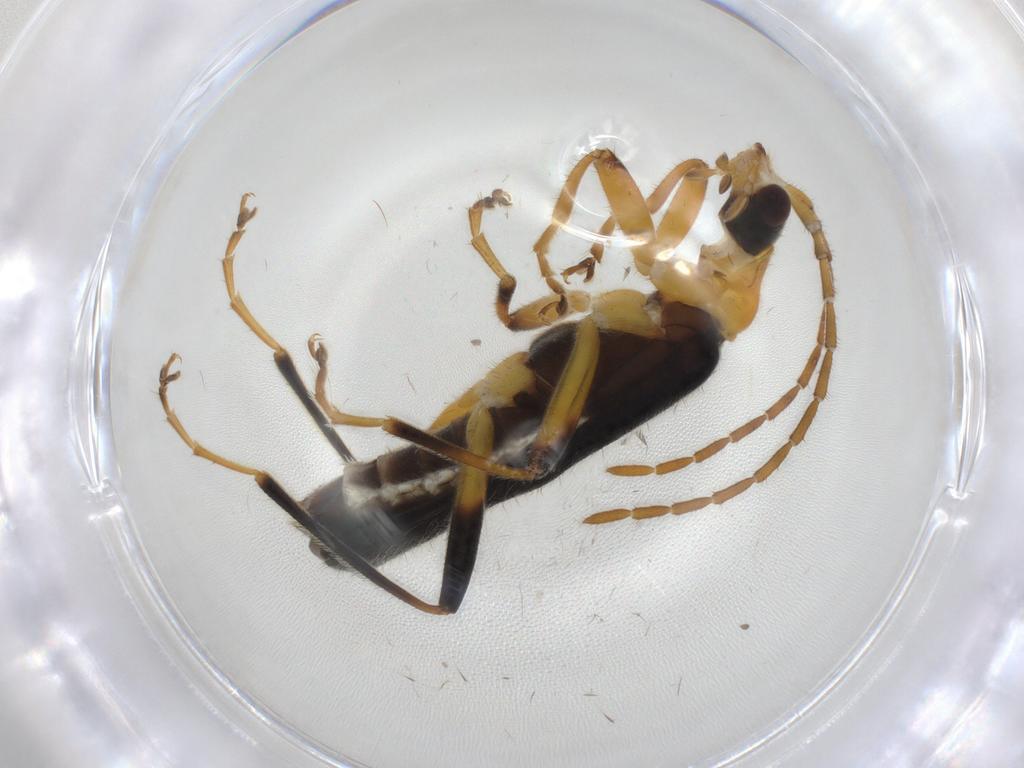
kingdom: Animalia
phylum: Arthropoda
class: Insecta
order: Coleoptera
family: Cantharidae
